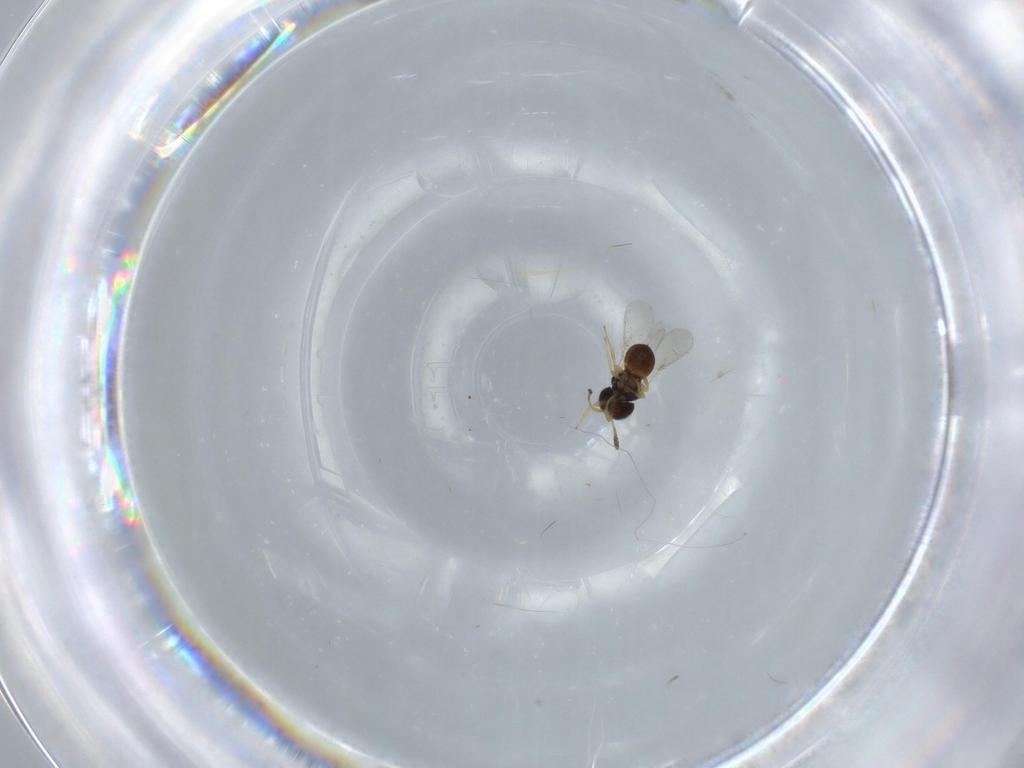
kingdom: Animalia
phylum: Arthropoda
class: Insecta
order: Hymenoptera
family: Scelionidae
